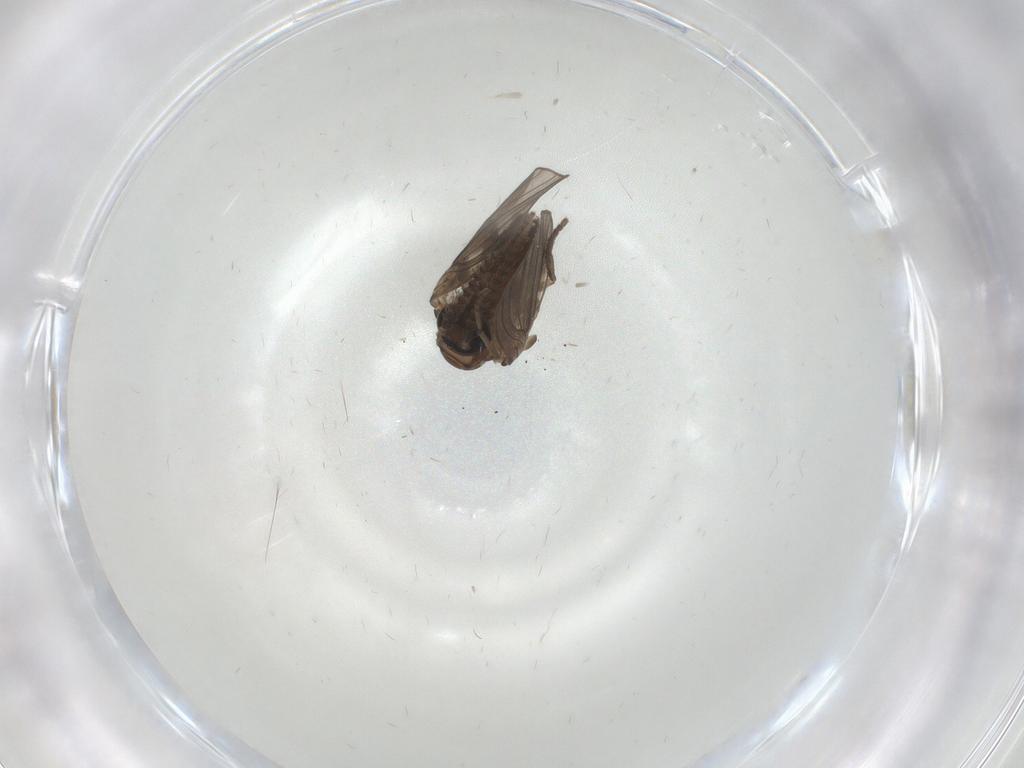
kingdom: Animalia
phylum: Arthropoda
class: Insecta
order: Diptera
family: Psychodidae
